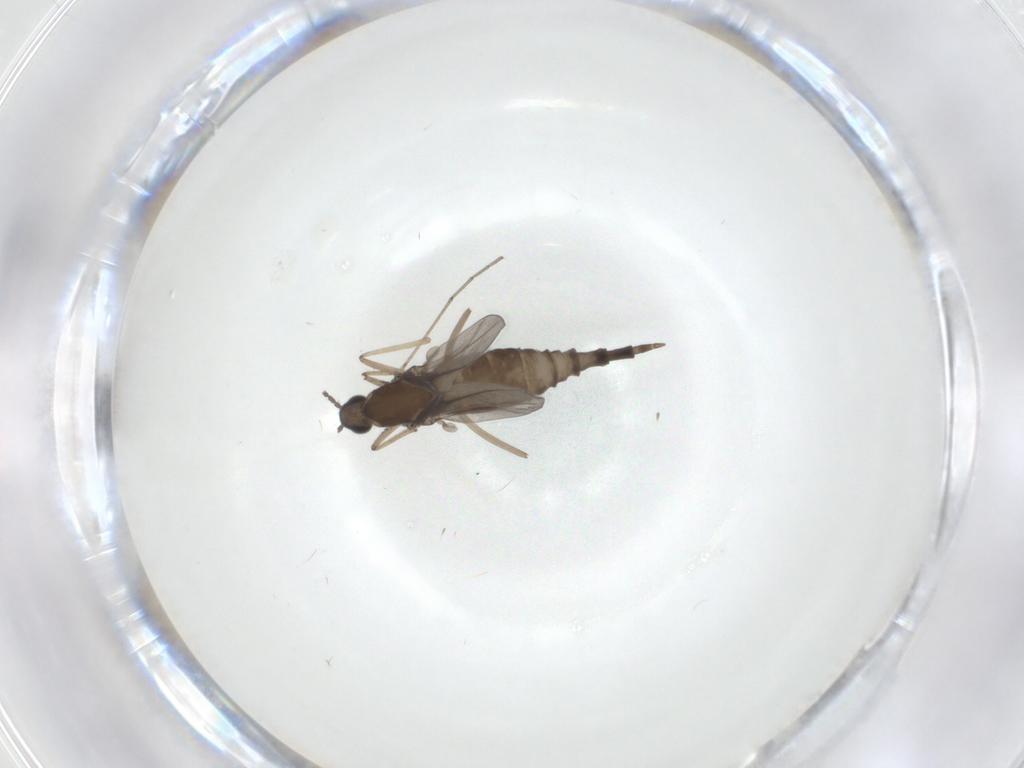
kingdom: Animalia
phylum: Arthropoda
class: Insecta
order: Diptera
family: Cecidomyiidae
